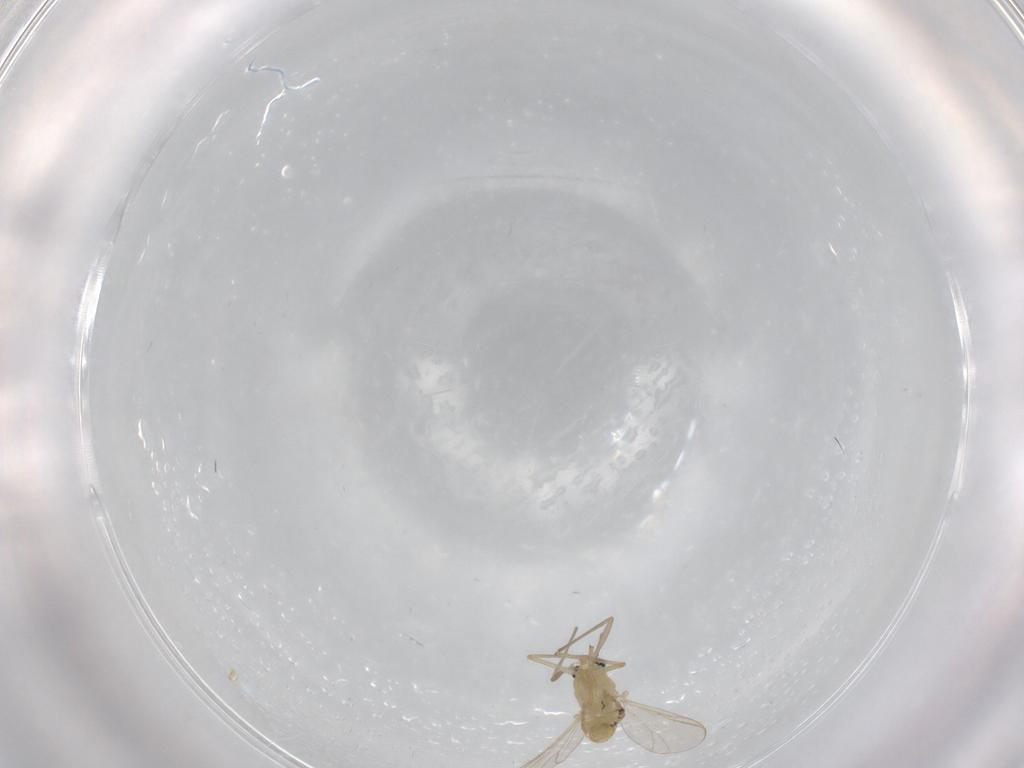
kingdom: Animalia
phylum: Arthropoda
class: Insecta
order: Diptera
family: Chironomidae
